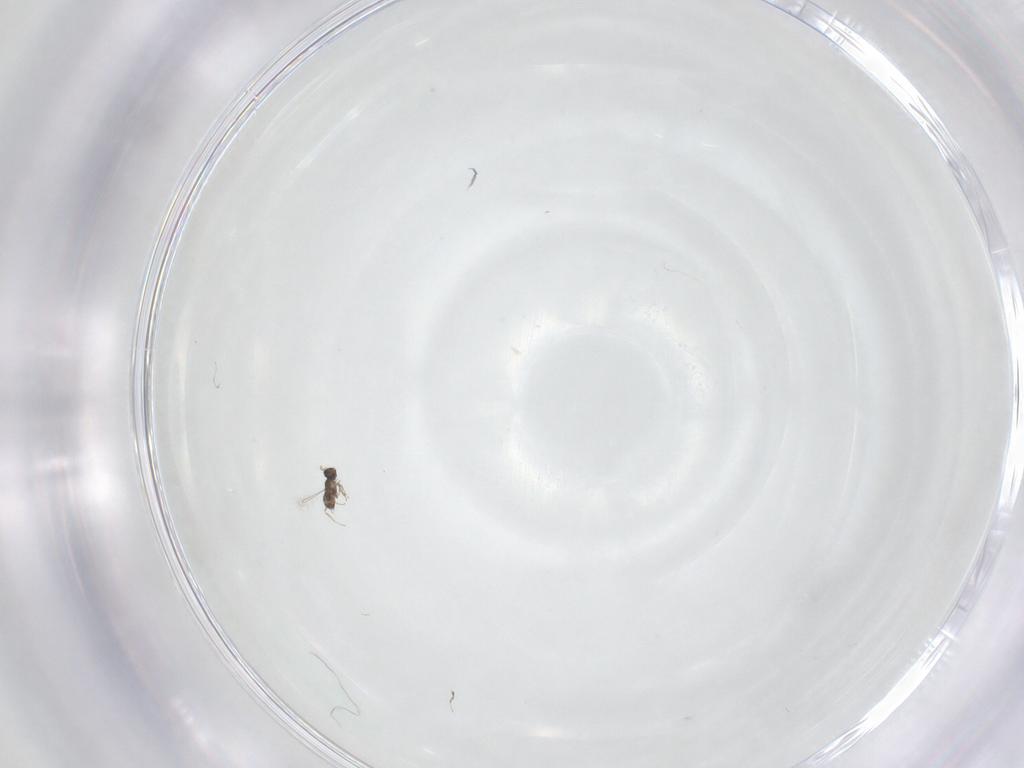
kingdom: Animalia
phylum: Arthropoda
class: Insecta
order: Hymenoptera
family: Mymaridae
